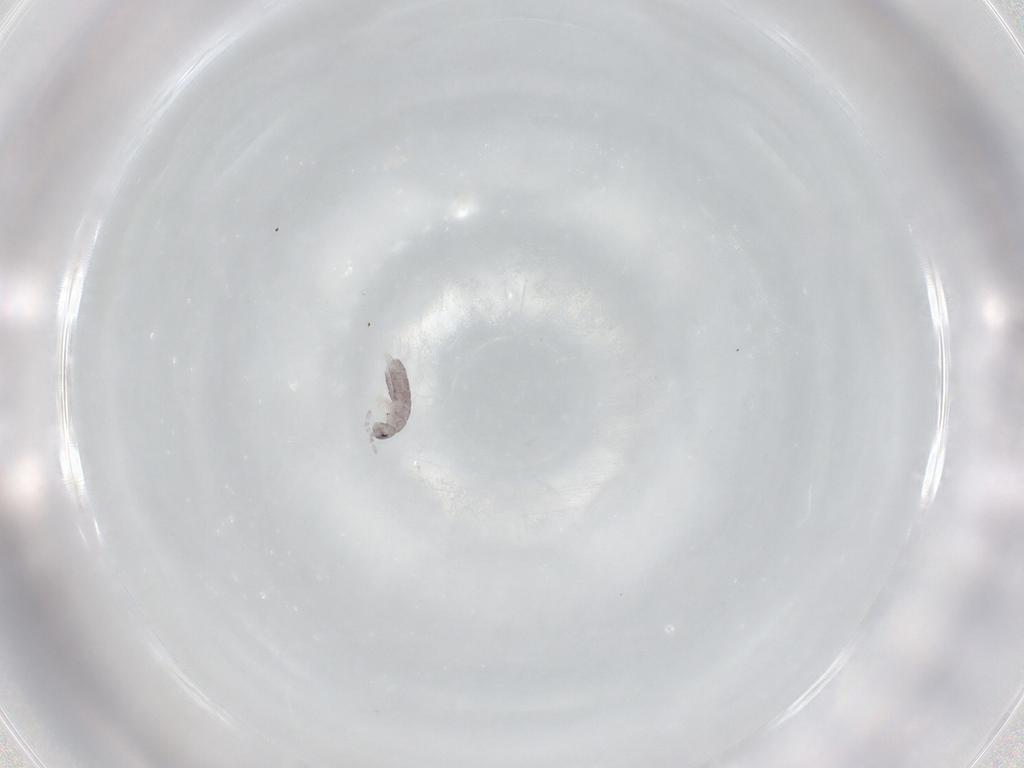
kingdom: Animalia
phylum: Arthropoda
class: Collembola
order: Entomobryomorpha
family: Isotomidae
